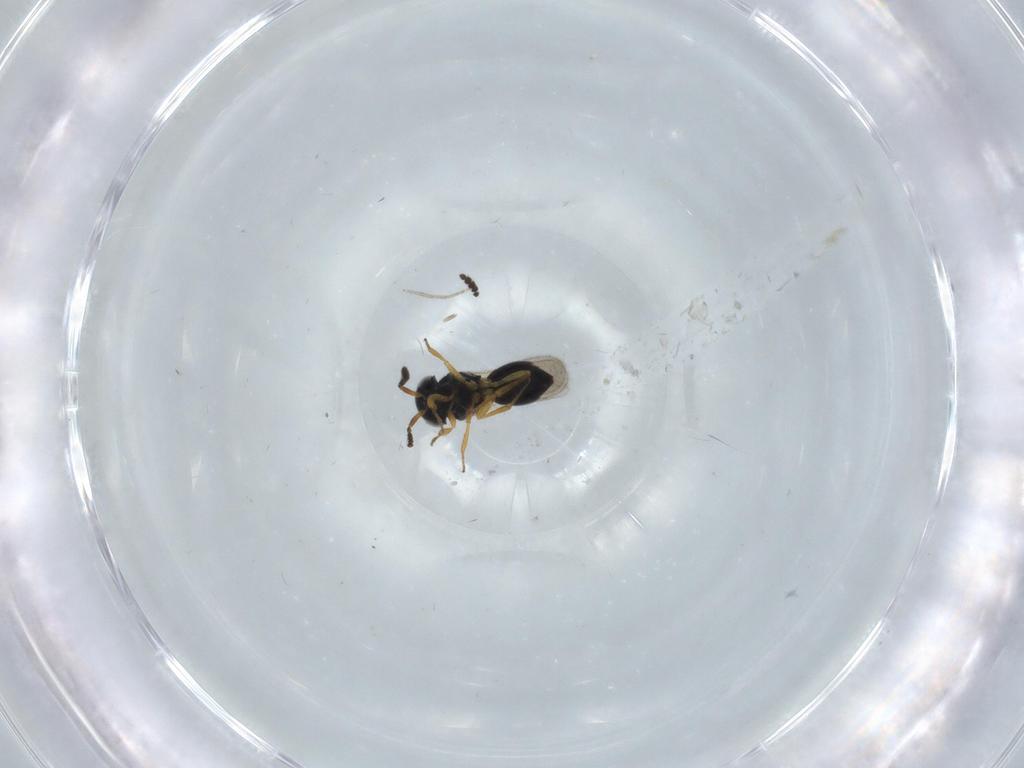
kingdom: Animalia
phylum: Arthropoda
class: Insecta
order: Hymenoptera
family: Scelionidae
